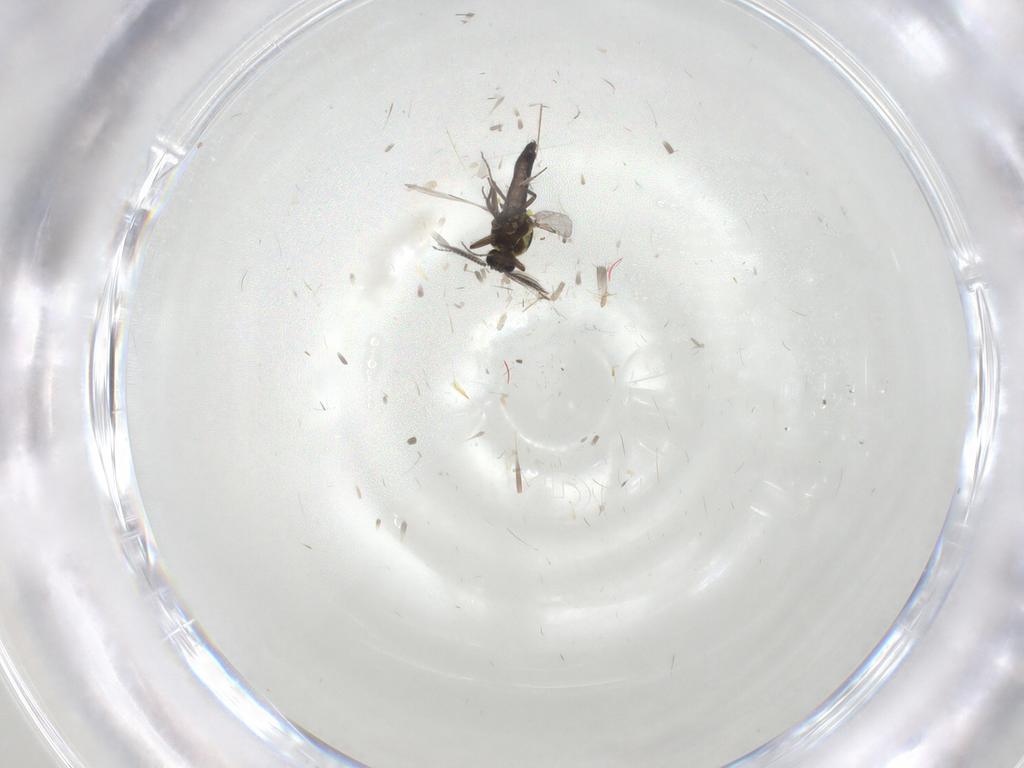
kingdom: Animalia
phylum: Arthropoda
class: Insecta
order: Diptera
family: Ceratopogonidae
